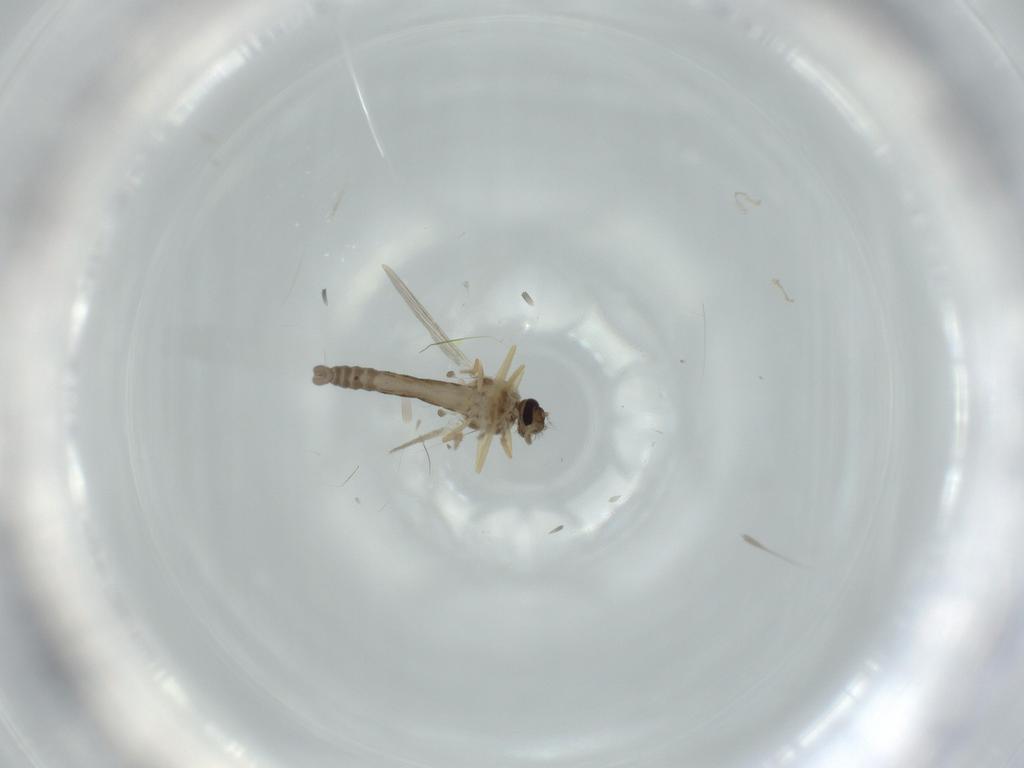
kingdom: Animalia
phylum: Arthropoda
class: Insecta
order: Diptera
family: Ceratopogonidae
